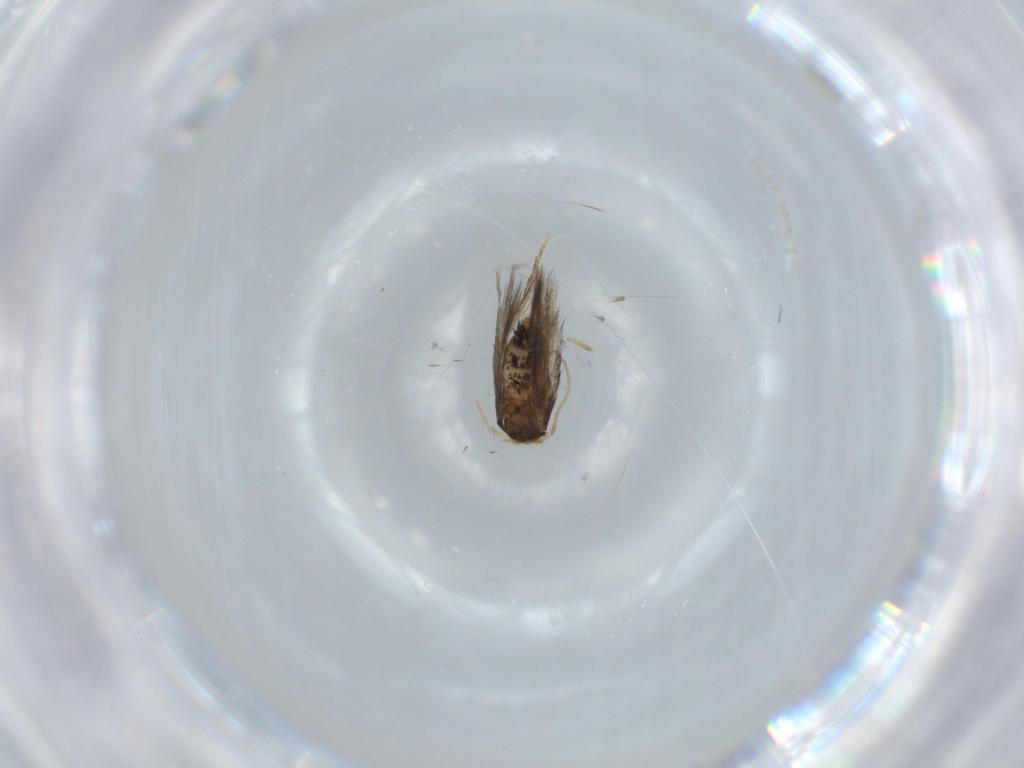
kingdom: Animalia
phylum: Arthropoda
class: Insecta
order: Lepidoptera
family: Nepticulidae
